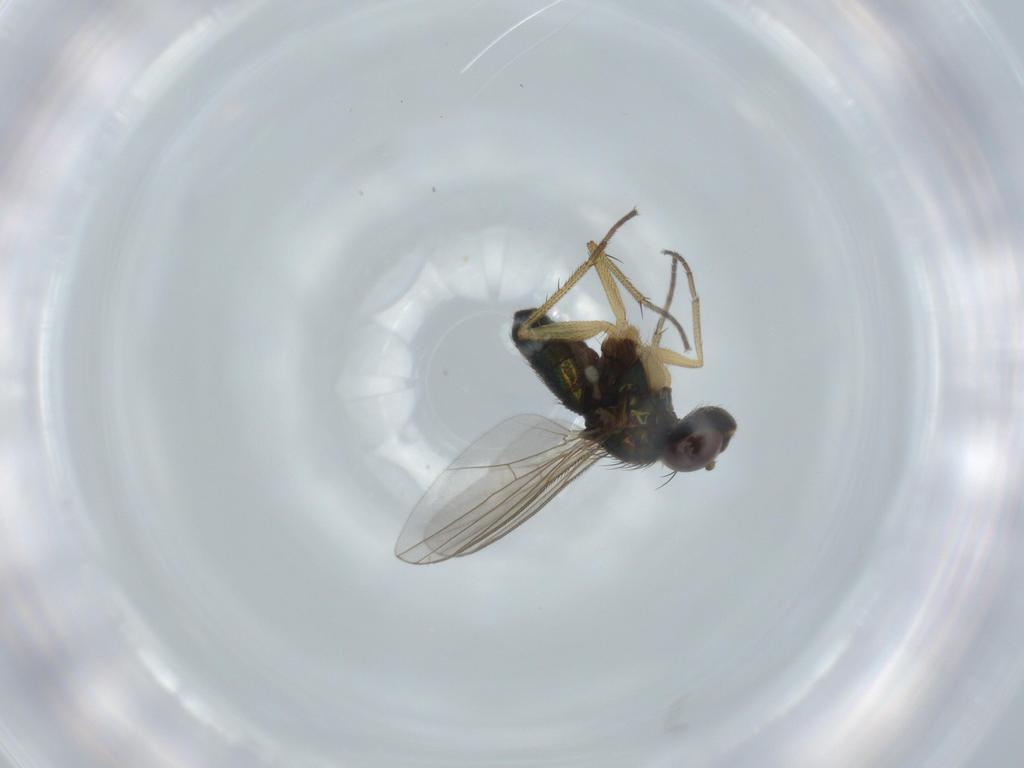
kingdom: Animalia
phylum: Arthropoda
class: Insecta
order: Diptera
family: Dolichopodidae
